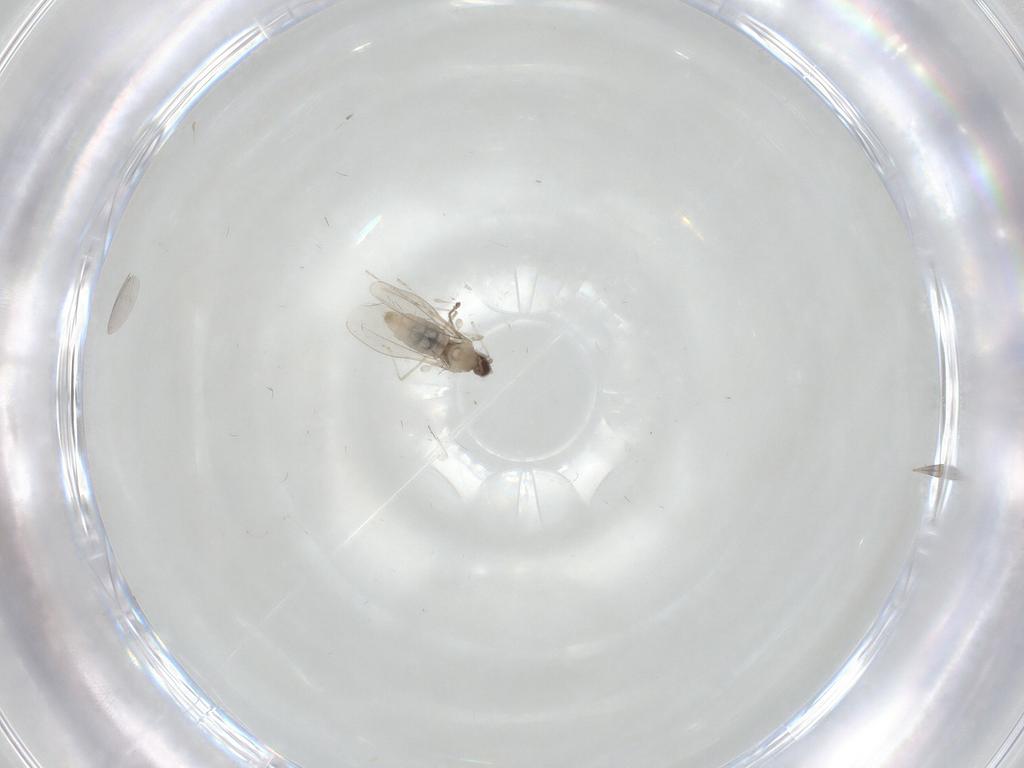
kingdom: Animalia
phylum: Arthropoda
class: Insecta
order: Diptera
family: Cecidomyiidae
